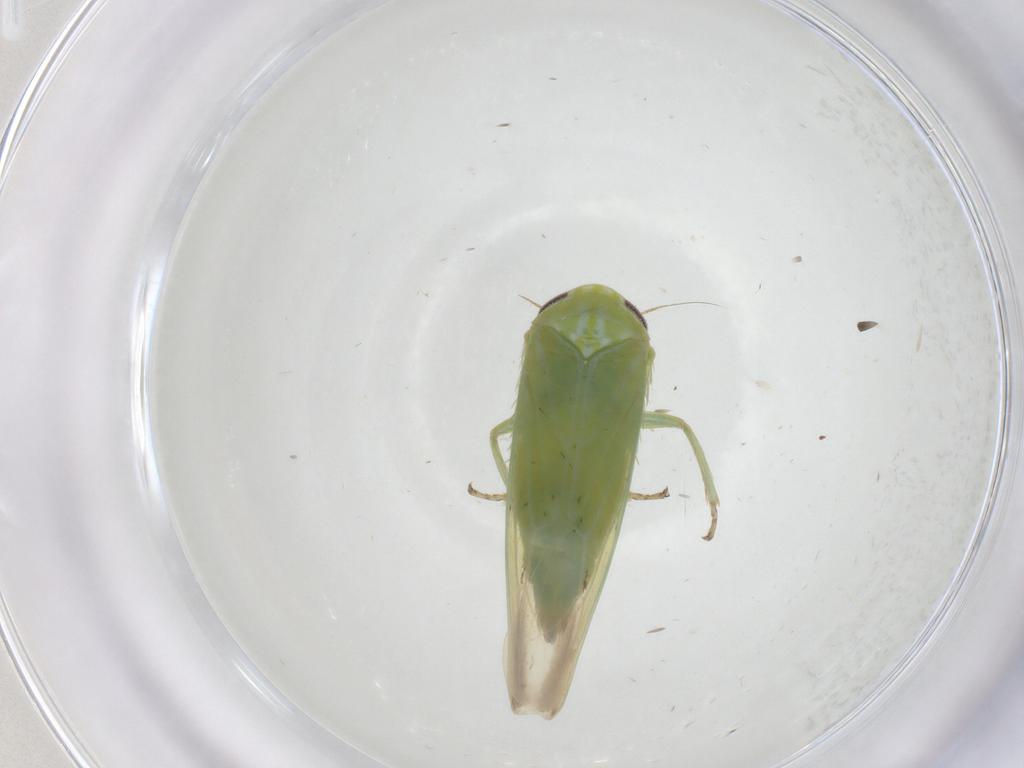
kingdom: Animalia
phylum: Arthropoda
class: Insecta
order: Hemiptera
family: Cicadellidae
